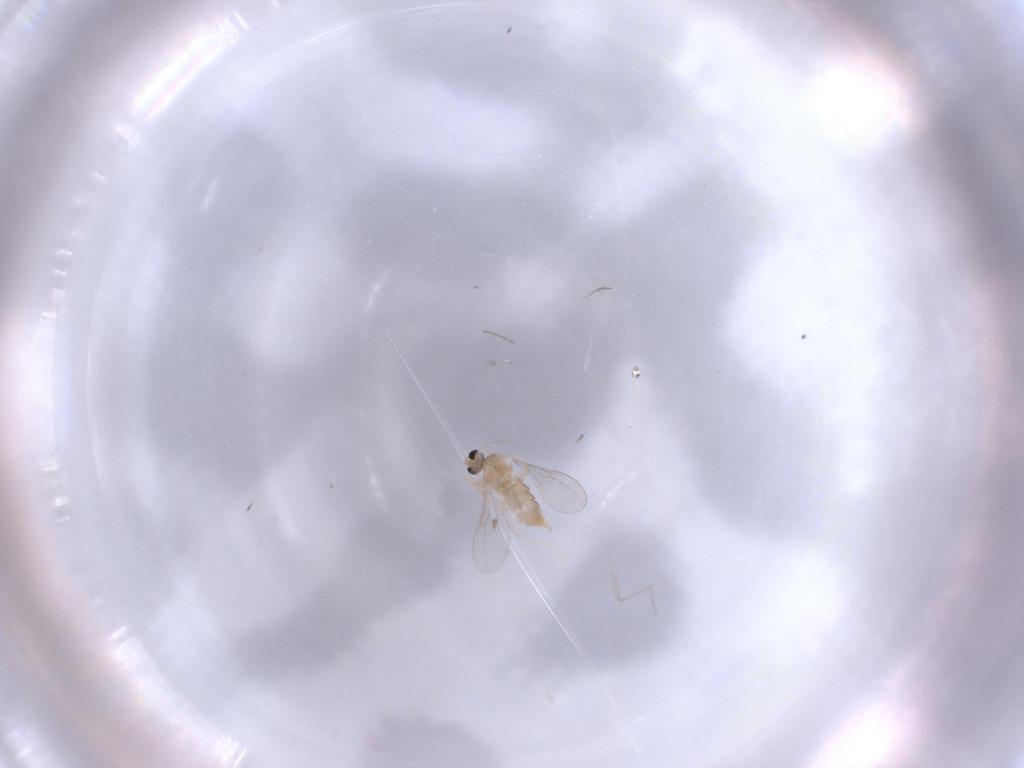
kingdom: Animalia
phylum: Arthropoda
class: Insecta
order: Diptera
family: Cecidomyiidae
